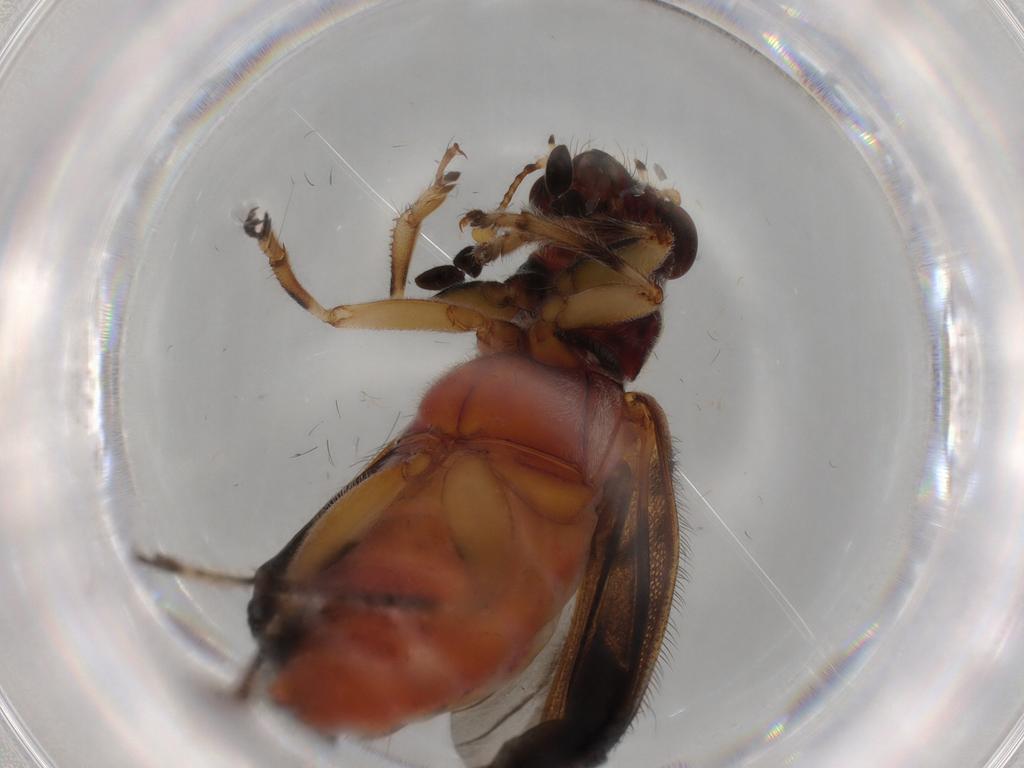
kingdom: Animalia
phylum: Arthropoda
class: Insecta
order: Coleoptera
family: Cleridae
